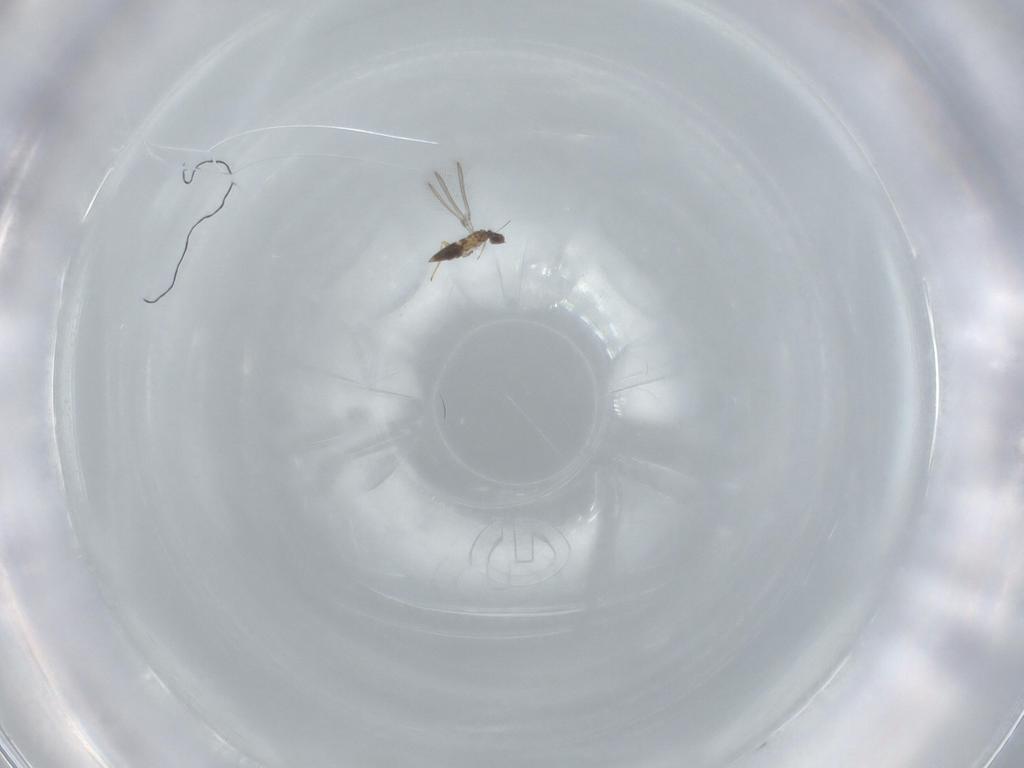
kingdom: Animalia
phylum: Arthropoda
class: Insecta
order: Hymenoptera
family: Mymaridae
